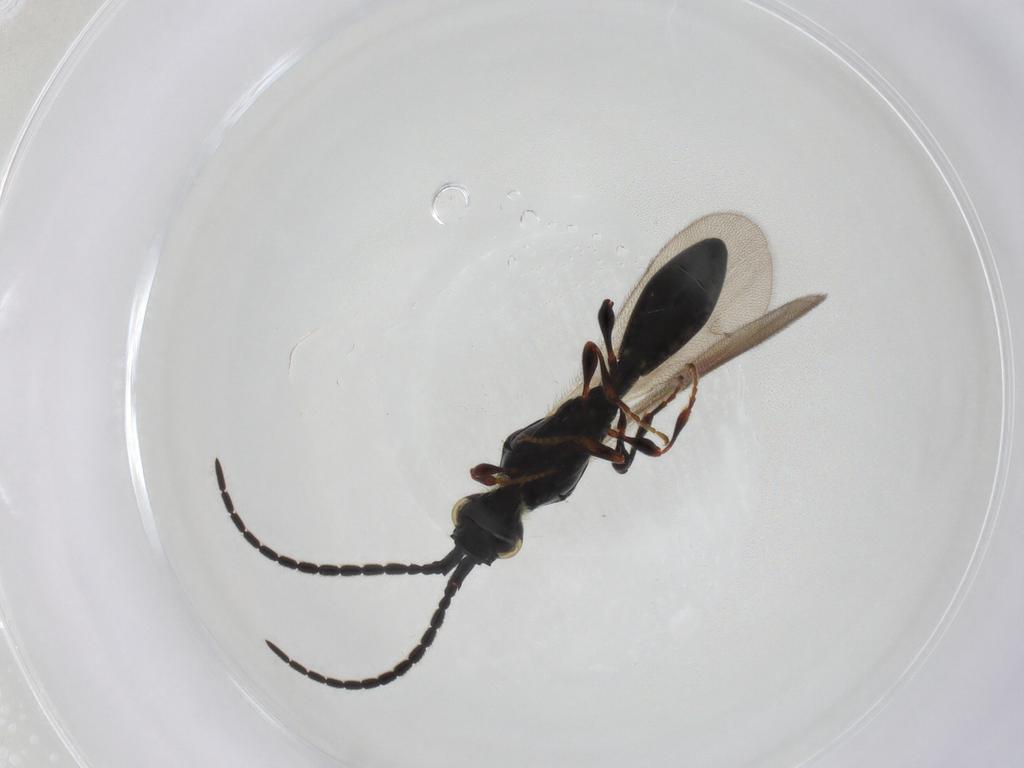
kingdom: Animalia
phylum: Arthropoda
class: Insecta
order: Hymenoptera
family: Diapriidae
